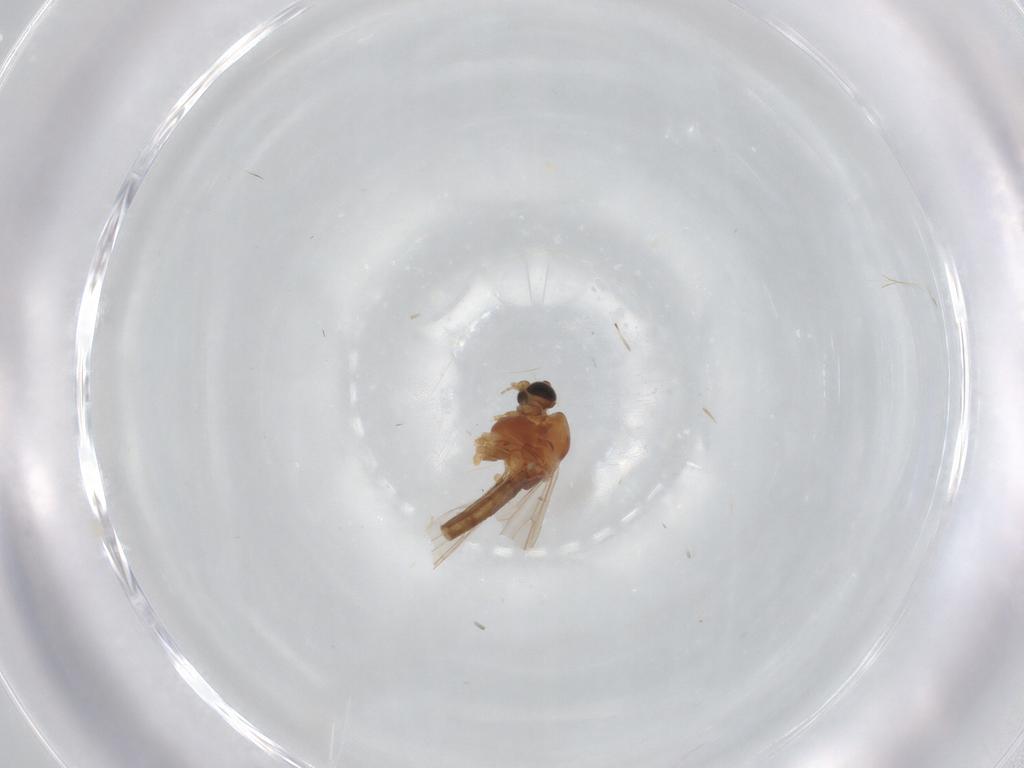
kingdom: Animalia
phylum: Arthropoda
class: Insecta
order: Diptera
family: Chironomidae
